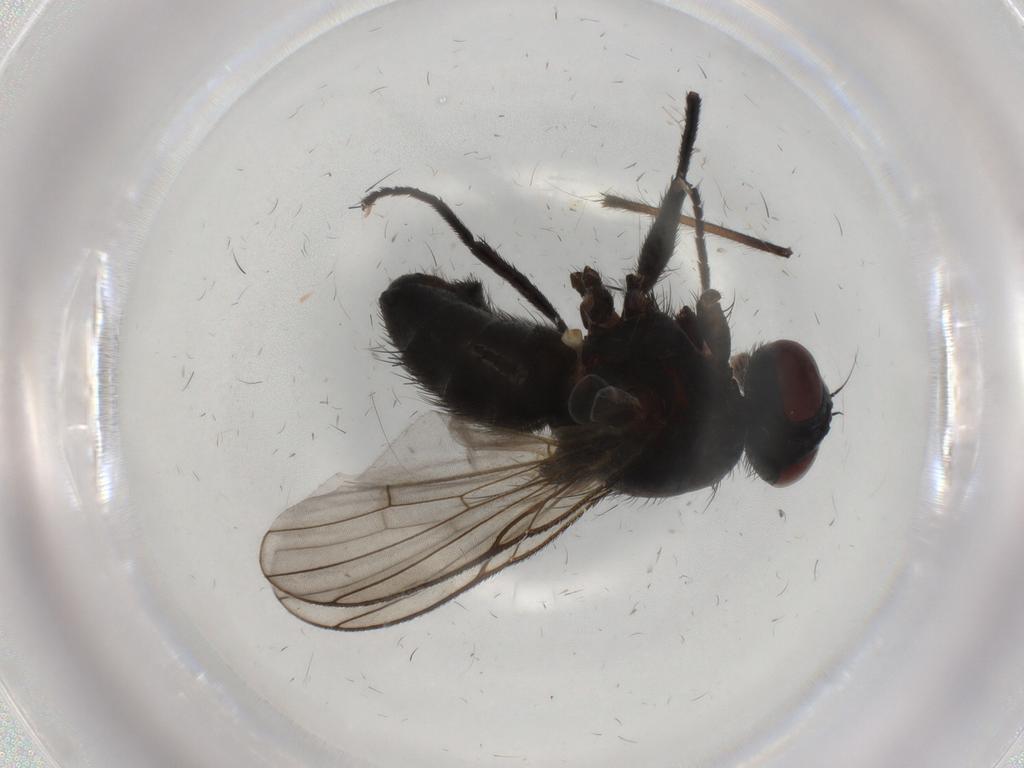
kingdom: Animalia
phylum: Arthropoda
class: Insecta
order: Diptera
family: Muscidae
